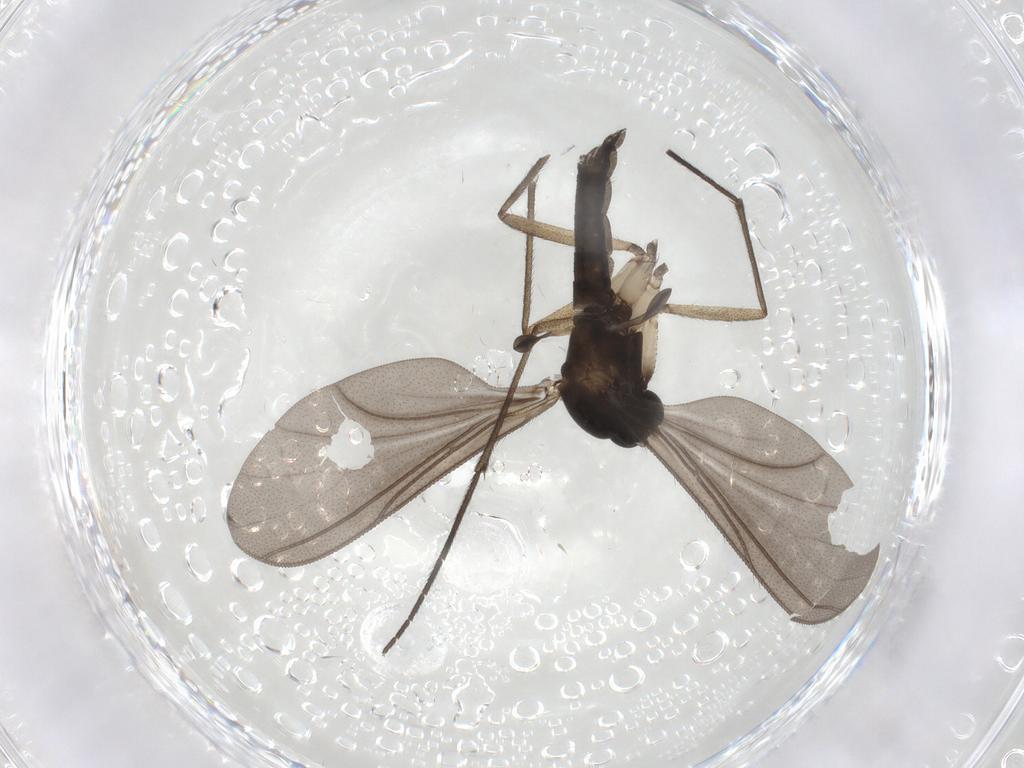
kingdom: Animalia
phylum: Arthropoda
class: Insecta
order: Diptera
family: Sciaridae
